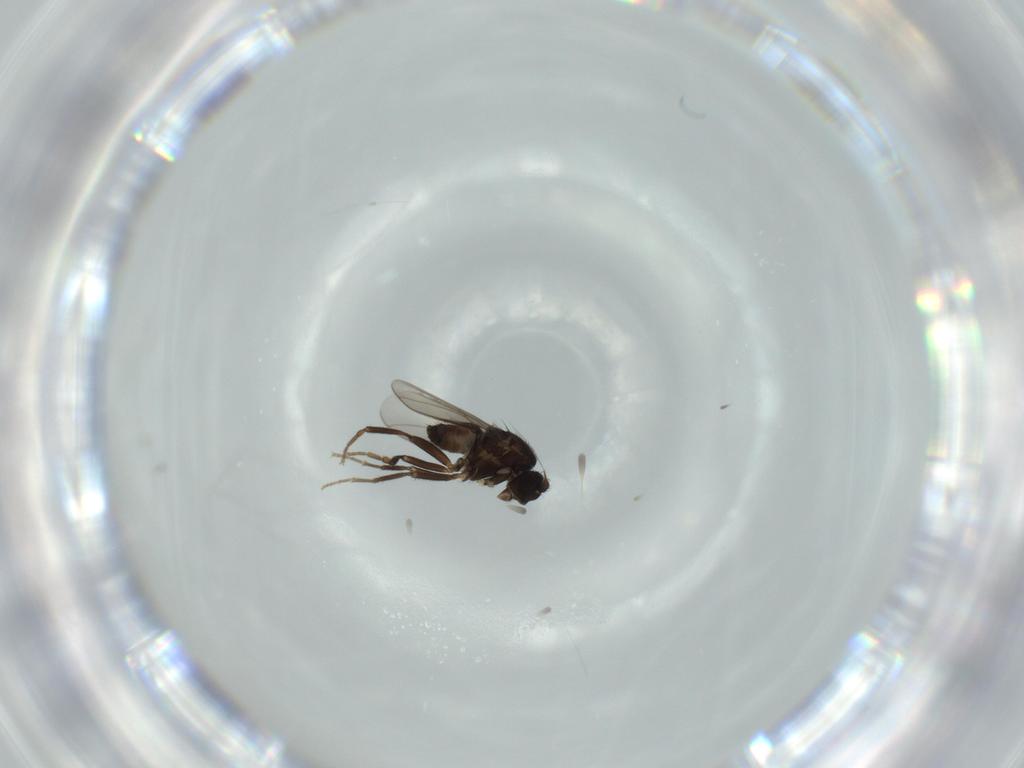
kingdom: Animalia
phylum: Arthropoda
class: Insecta
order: Diptera
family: Sphaeroceridae
